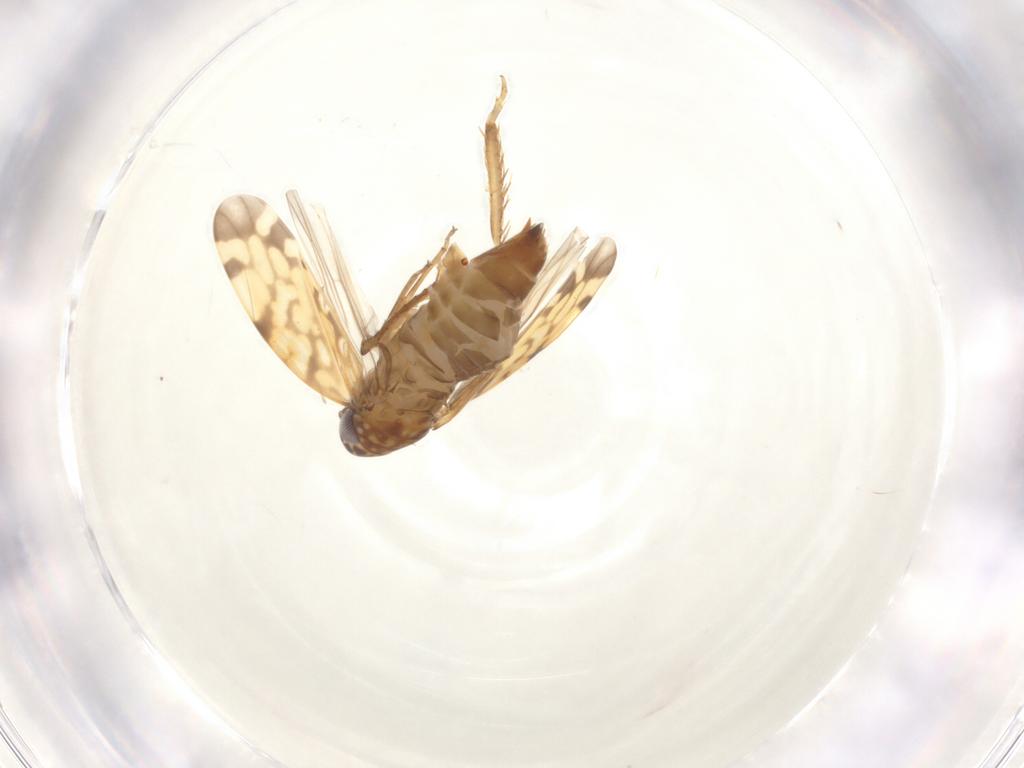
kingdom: Animalia
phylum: Arthropoda
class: Insecta
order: Hemiptera
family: Cicadellidae
